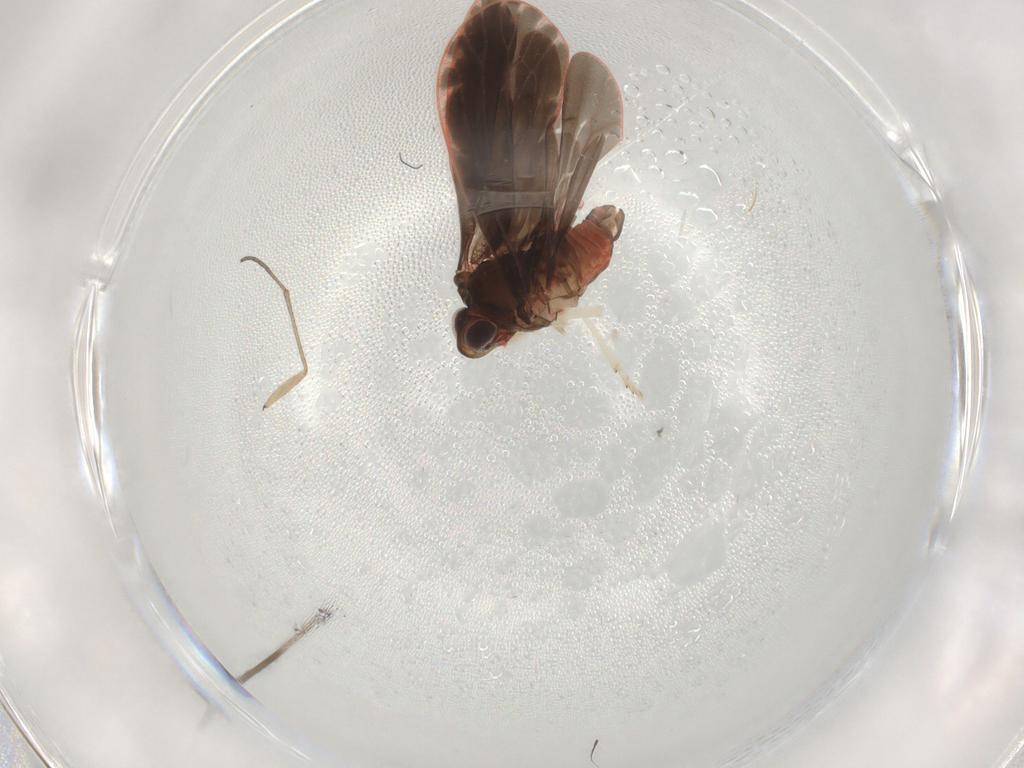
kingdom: Animalia
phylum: Arthropoda
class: Insecta
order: Hemiptera
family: Derbidae
